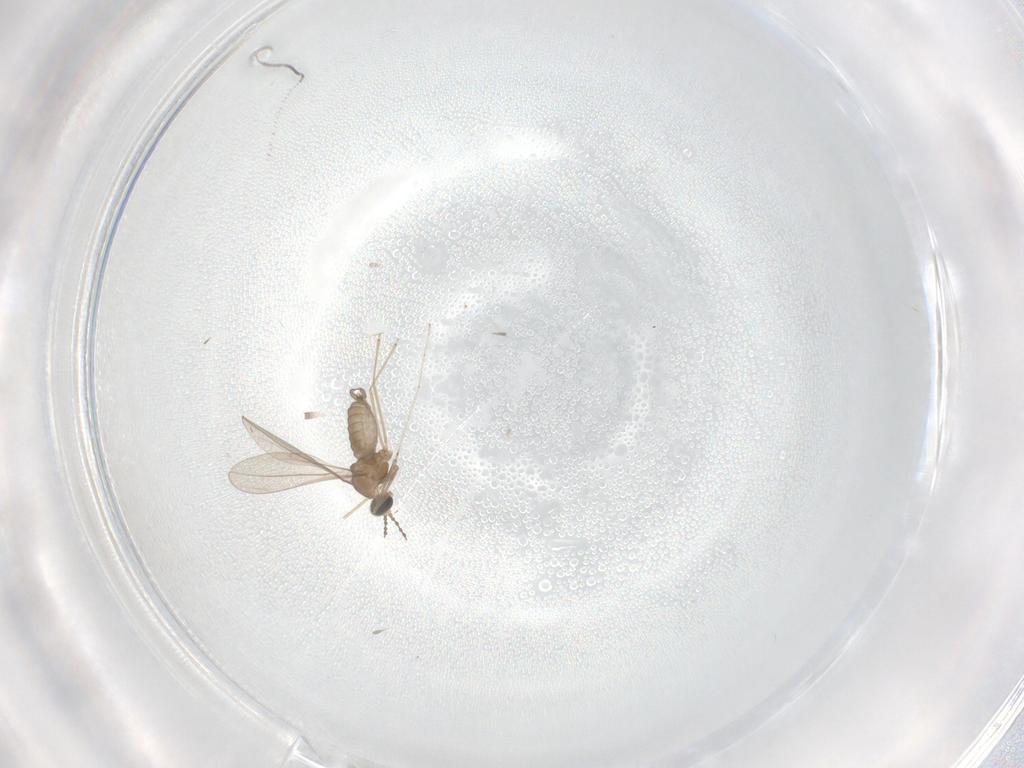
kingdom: Animalia
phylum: Arthropoda
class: Insecta
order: Diptera
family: Cecidomyiidae
